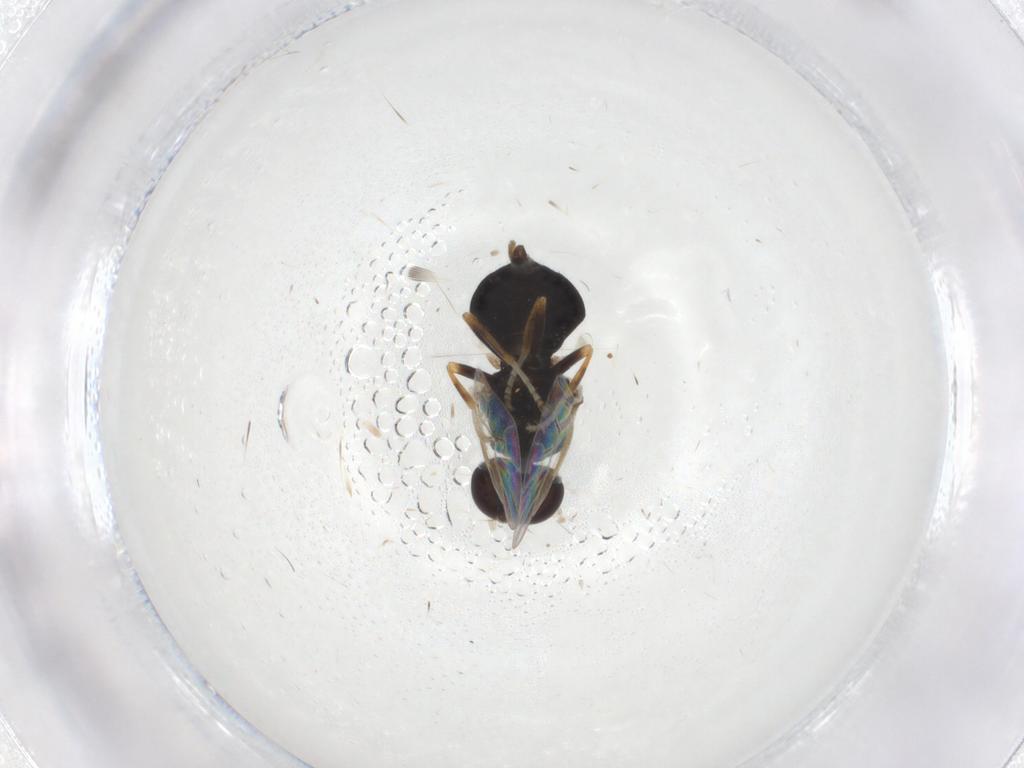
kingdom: Animalia
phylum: Arthropoda
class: Insecta
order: Diptera
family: Stratiomyidae
